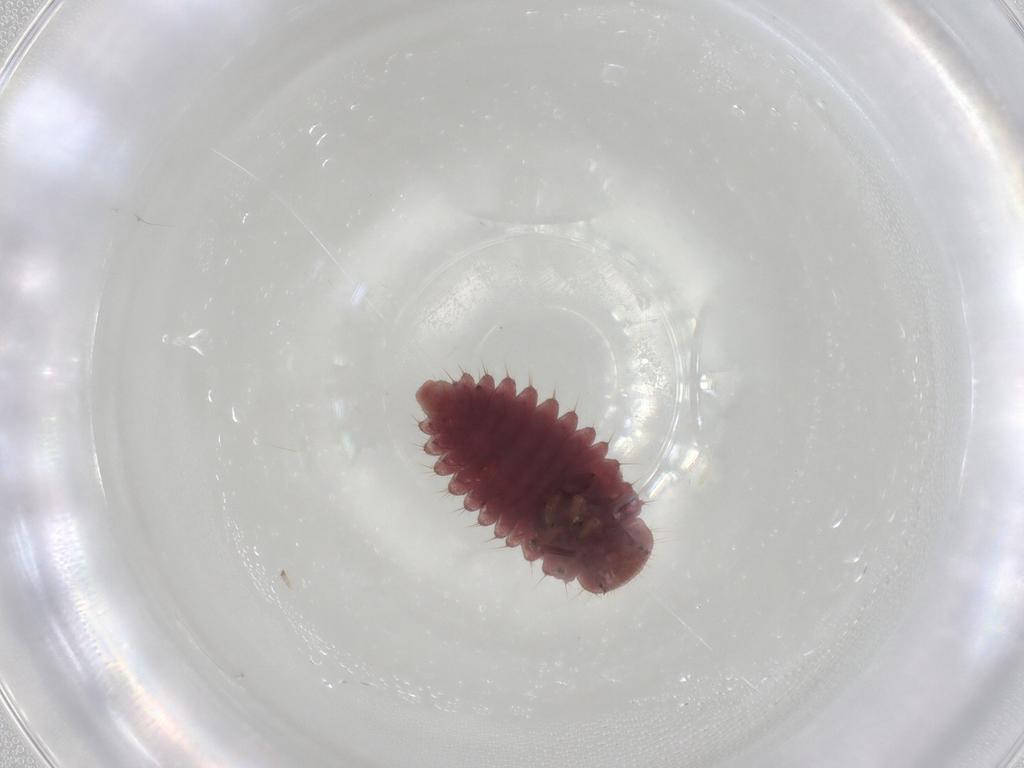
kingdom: Animalia
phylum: Arthropoda
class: Insecta
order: Coleoptera
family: Coccinellidae
